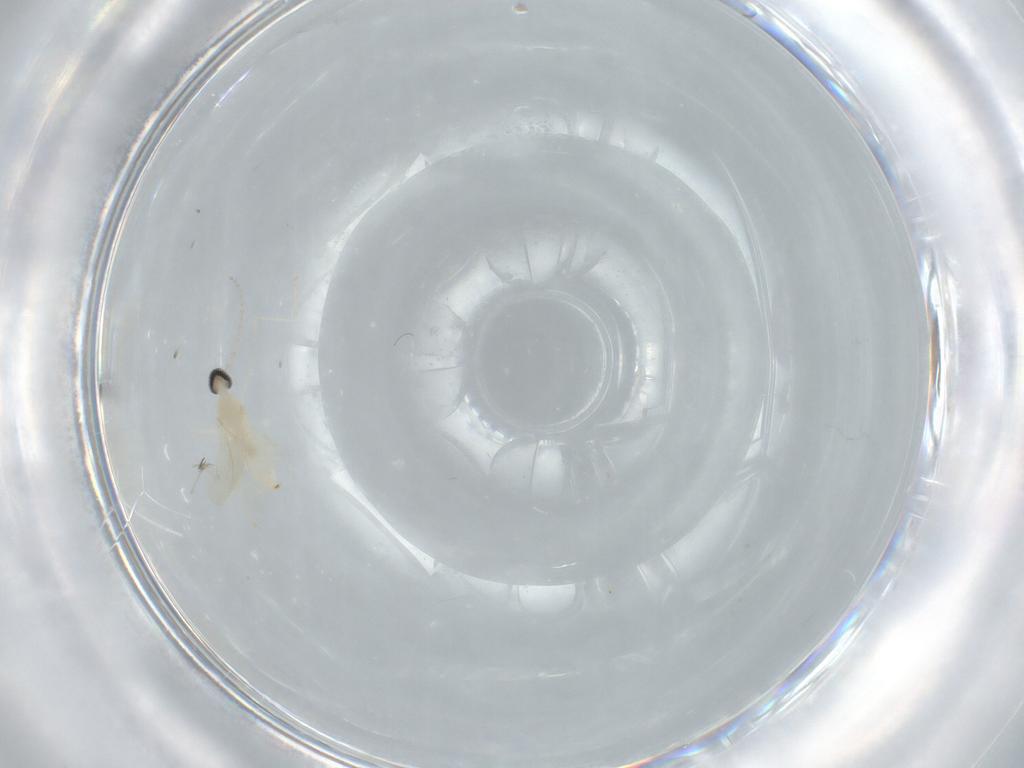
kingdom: Animalia
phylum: Arthropoda
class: Insecta
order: Diptera
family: Cecidomyiidae
